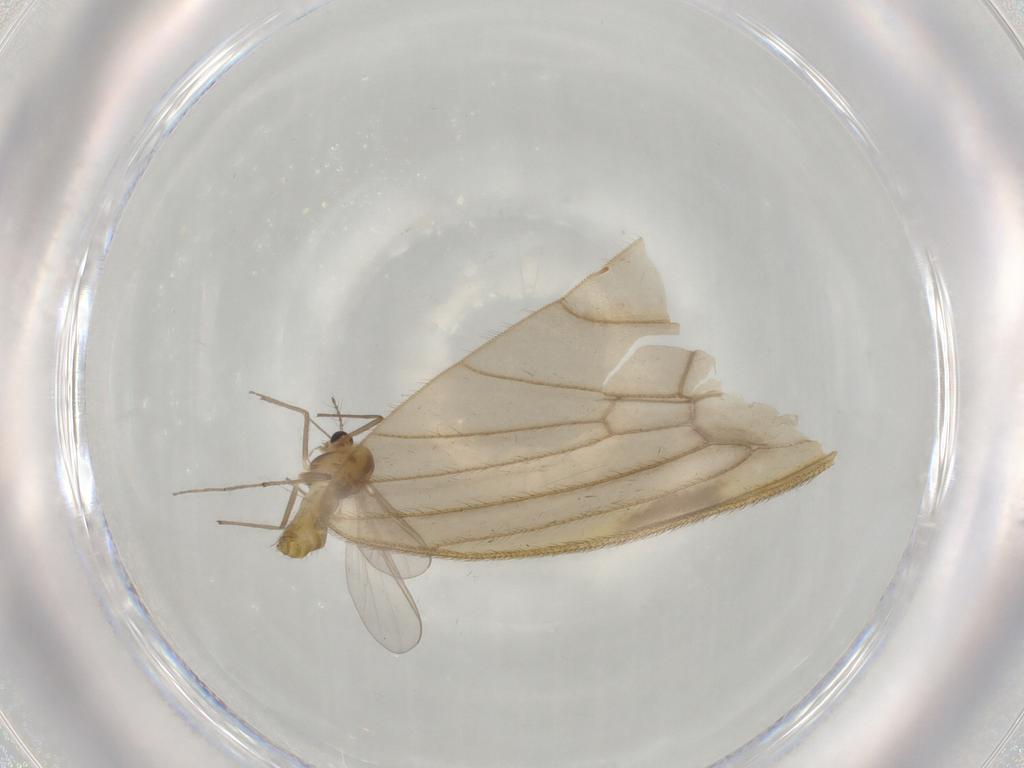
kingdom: Animalia
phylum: Arthropoda
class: Insecta
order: Diptera
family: Chironomidae
